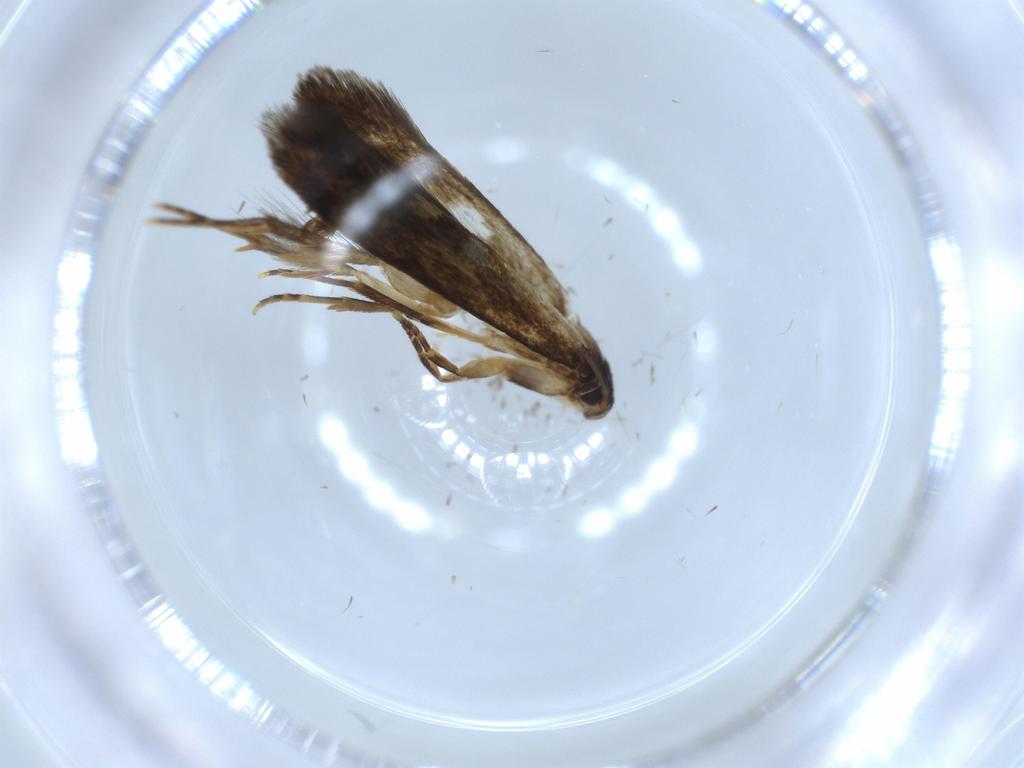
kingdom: Animalia
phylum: Arthropoda
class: Insecta
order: Lepidoptera
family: Tineidae
